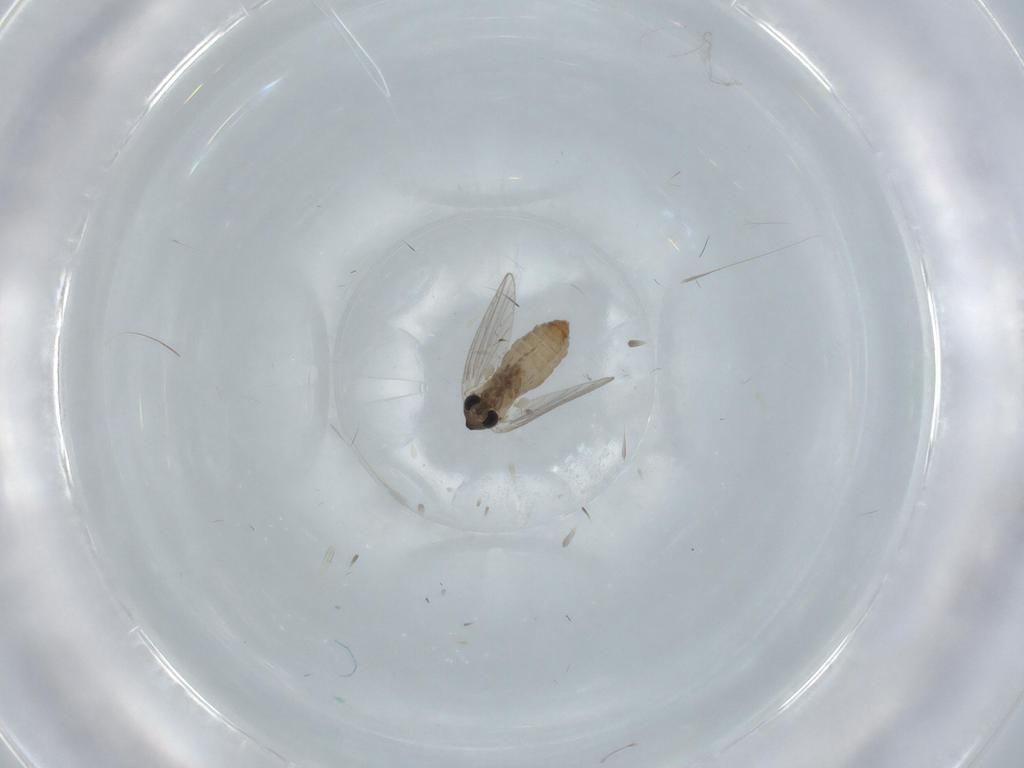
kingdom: Animalia
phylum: Arthropoda
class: Insecta
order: Diptera
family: Psychodidae
